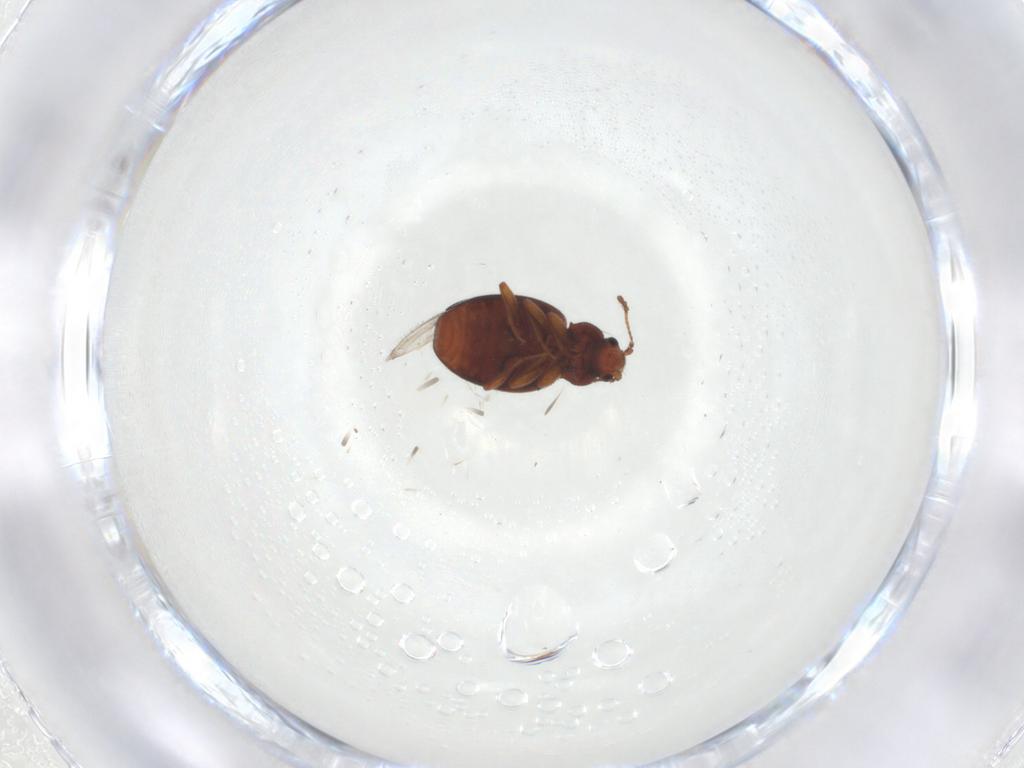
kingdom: Animalia
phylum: Arthropoda
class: Insecta
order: Coleoptera
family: Latridiidae
